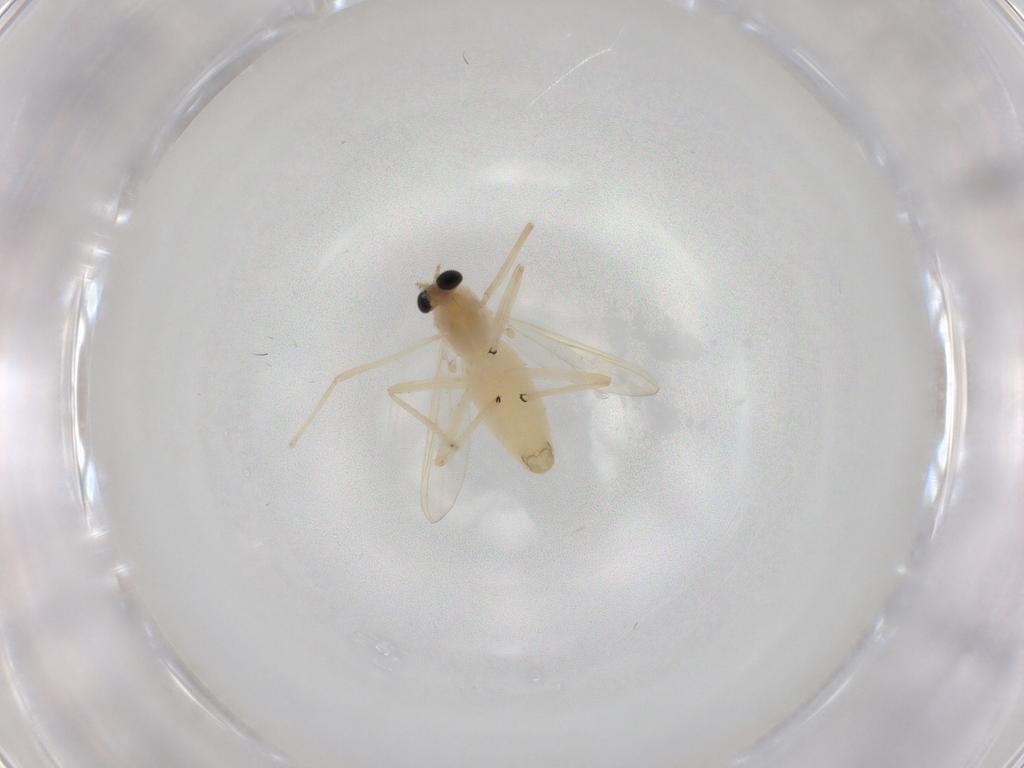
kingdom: Animalia
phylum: Arthropoda
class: Insecta
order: Diptera
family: Chironomidae
